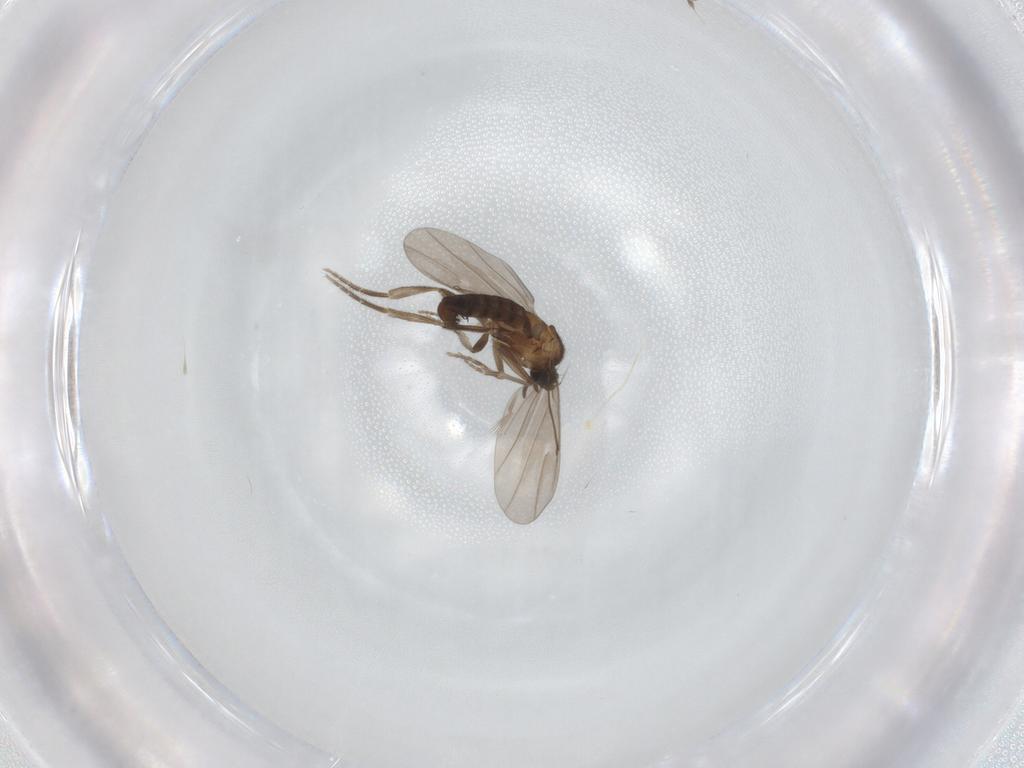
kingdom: Animalia
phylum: Arthropoda
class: Insecta
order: Diptera
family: Phoridae
